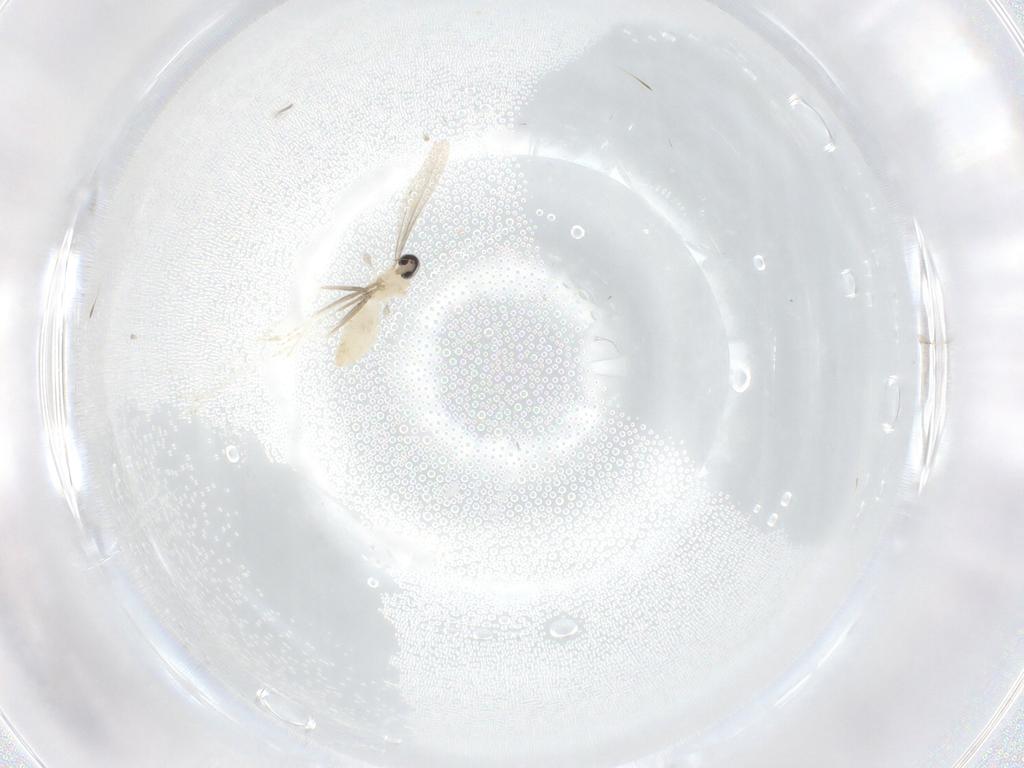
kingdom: Animalia
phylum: Arthropoda
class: Insecta
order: Diptera
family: Cecidomyiidae
